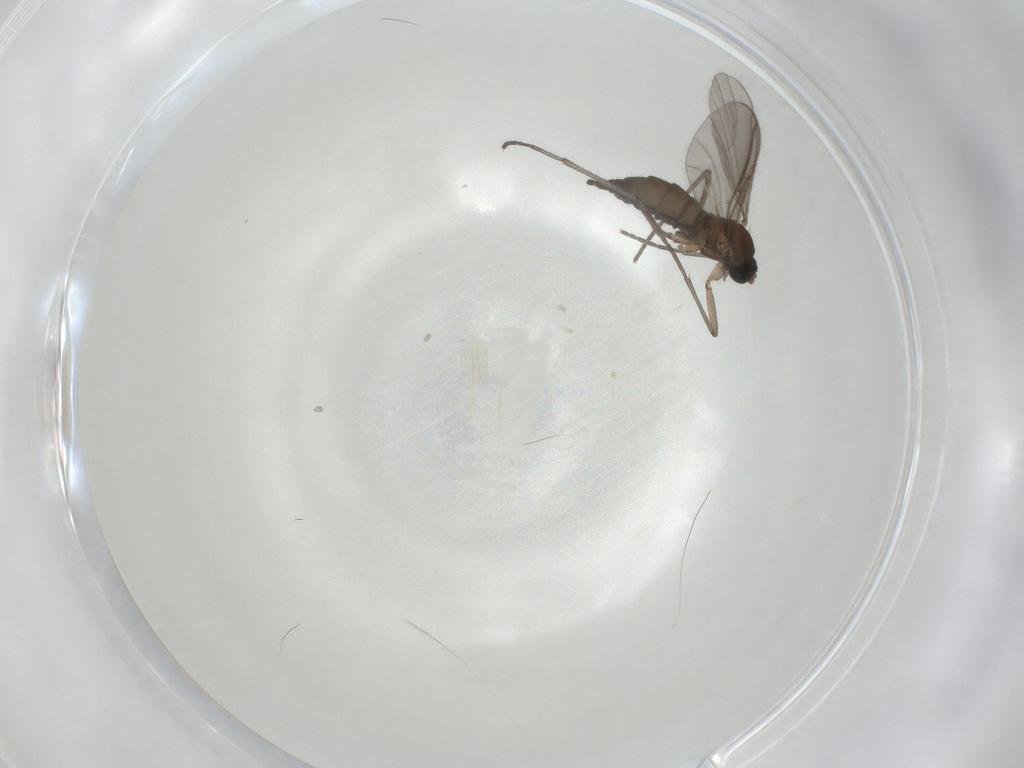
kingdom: Animalia
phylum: Arthropoda
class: Insecta
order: Diptera
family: Sciaridae
